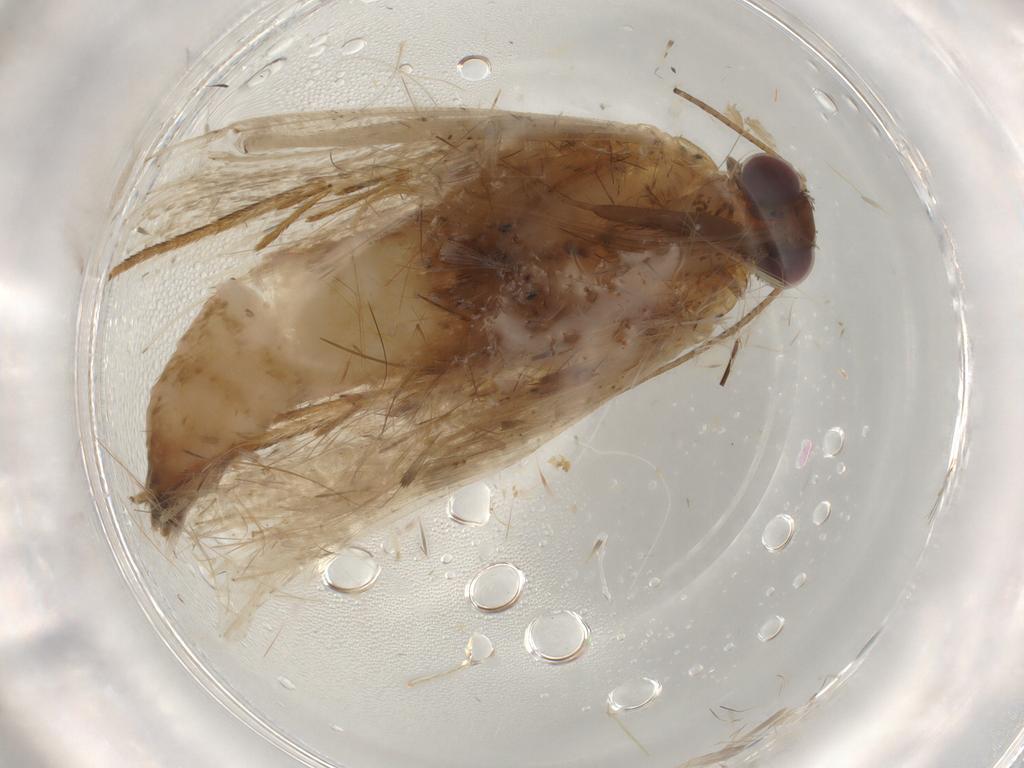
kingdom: Animalia
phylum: Arthropoda
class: Insecta
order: Lepidoptera
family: Erebidae
